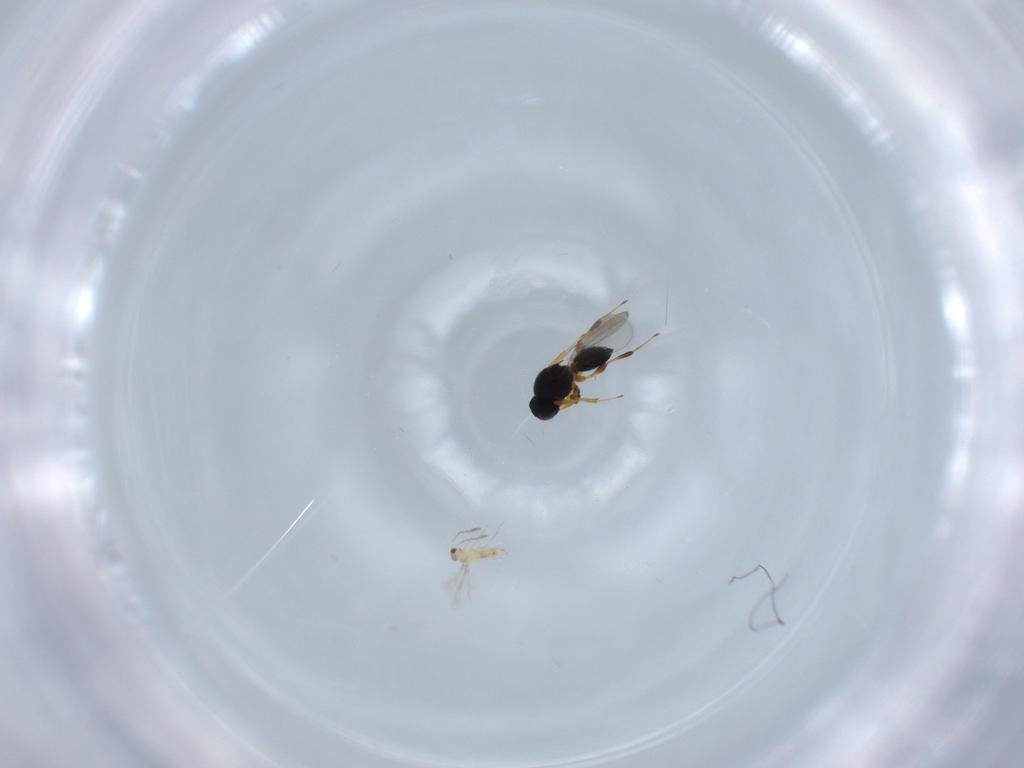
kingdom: Animalia
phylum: Arthropoda
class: Insecta
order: Hymenoptera
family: Platygastridae
